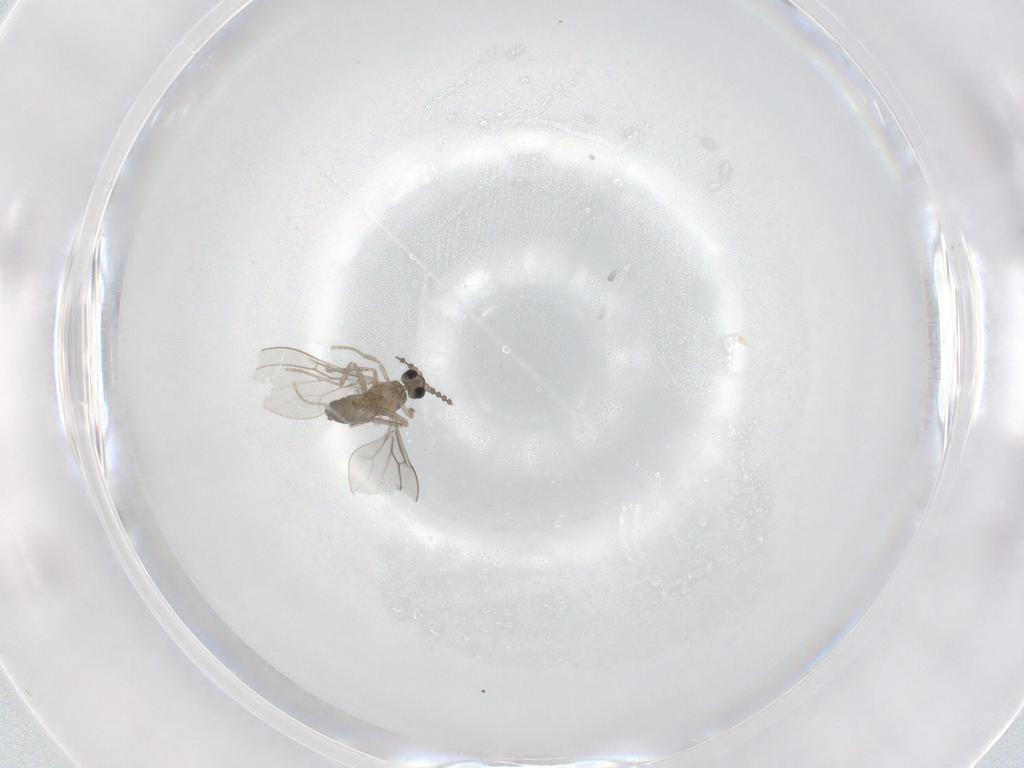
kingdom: Animalia
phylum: Arthropoda
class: Insecta
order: Diptera
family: Cecidomyiidae
